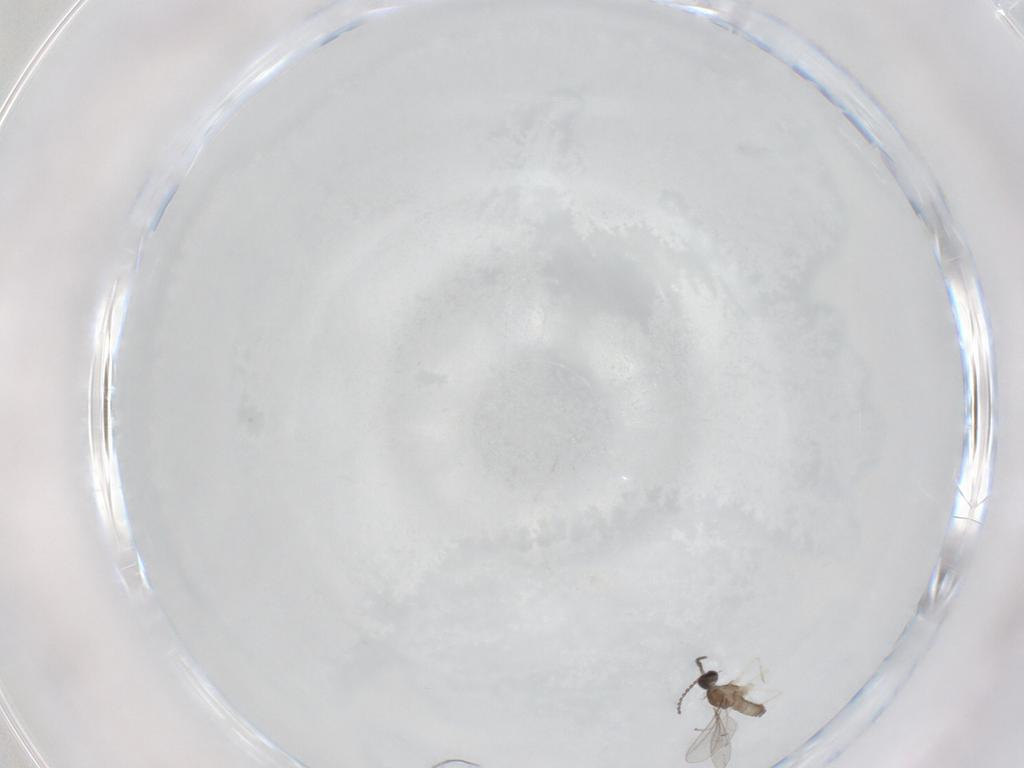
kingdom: Animalia
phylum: Arthropoda
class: Insecta
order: Diptera
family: Cecidomyiidae
